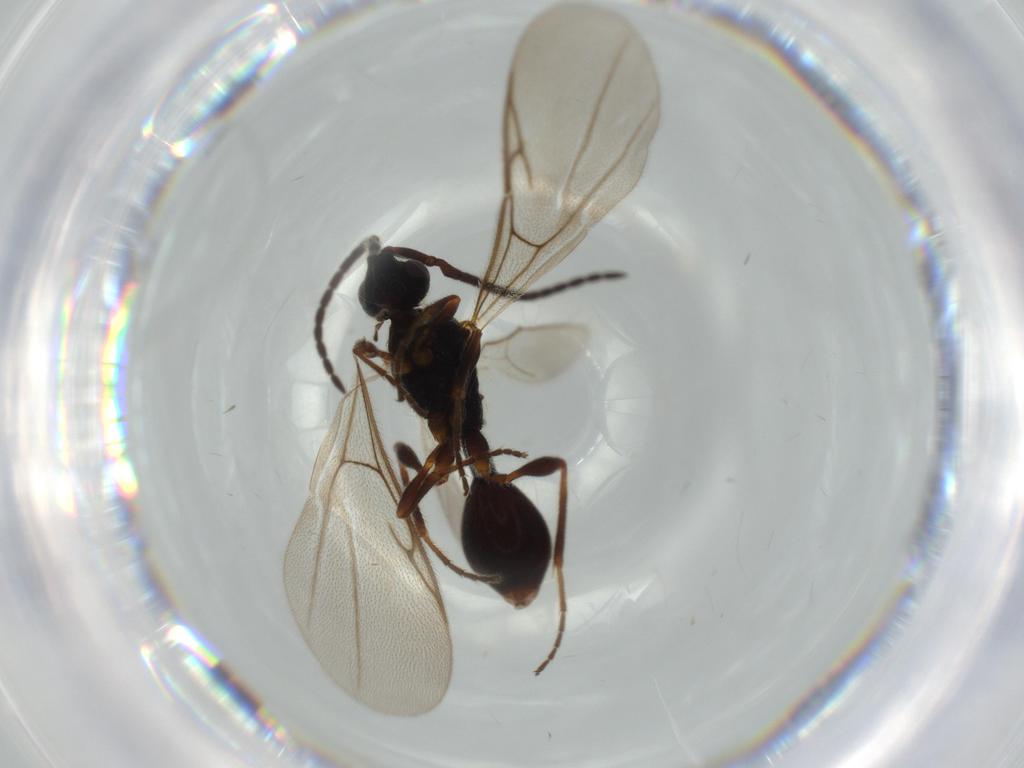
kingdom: Animalia
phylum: Arthropoda
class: Insecta
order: Hymenoptera
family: Braconidae
